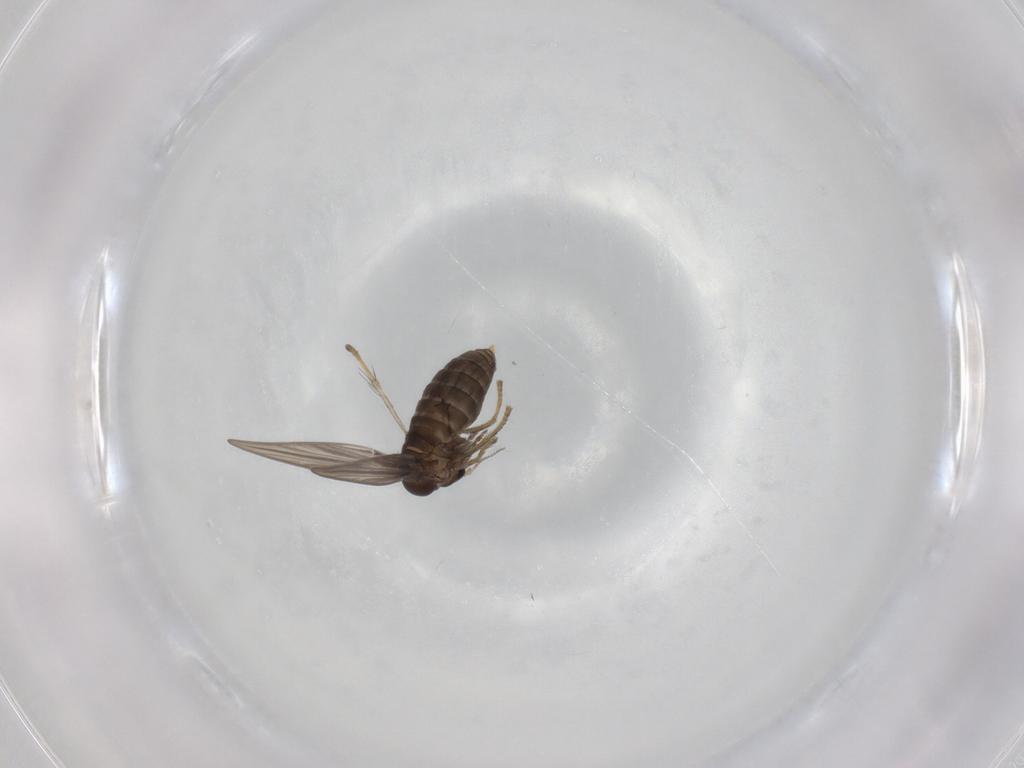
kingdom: Animalia
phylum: Arthropoda
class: Insecta
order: Diptera
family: Psychodidae
